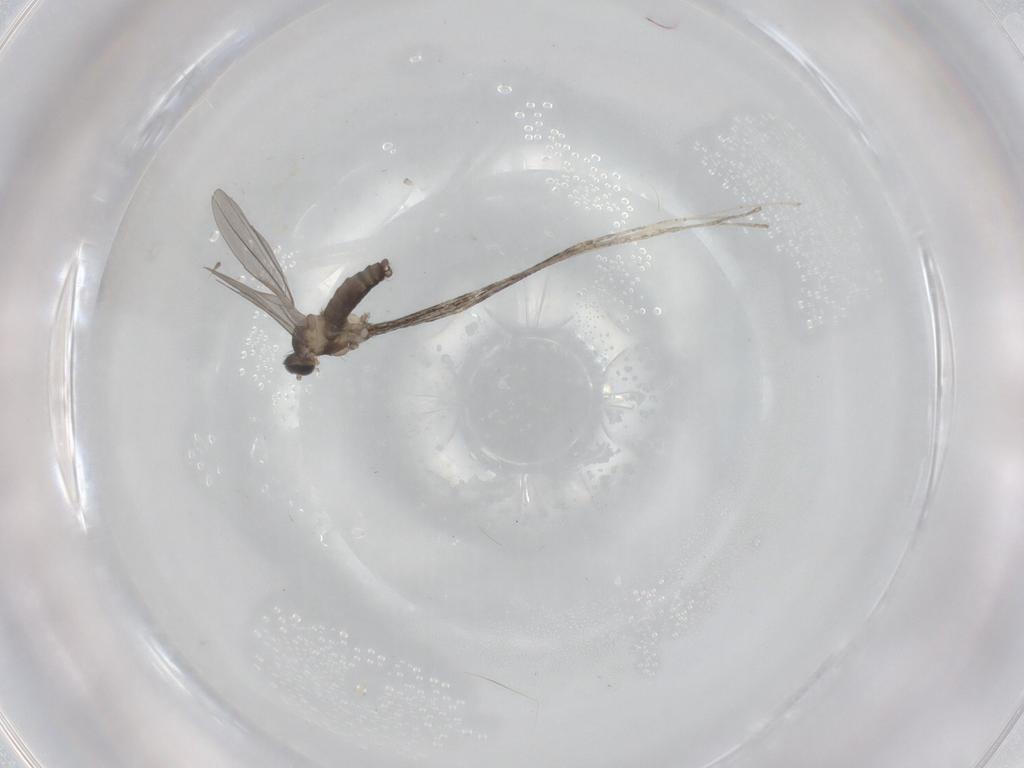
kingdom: Animalia
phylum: Arthropoda
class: Insecta
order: Diptera
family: Cecidomyiidae
